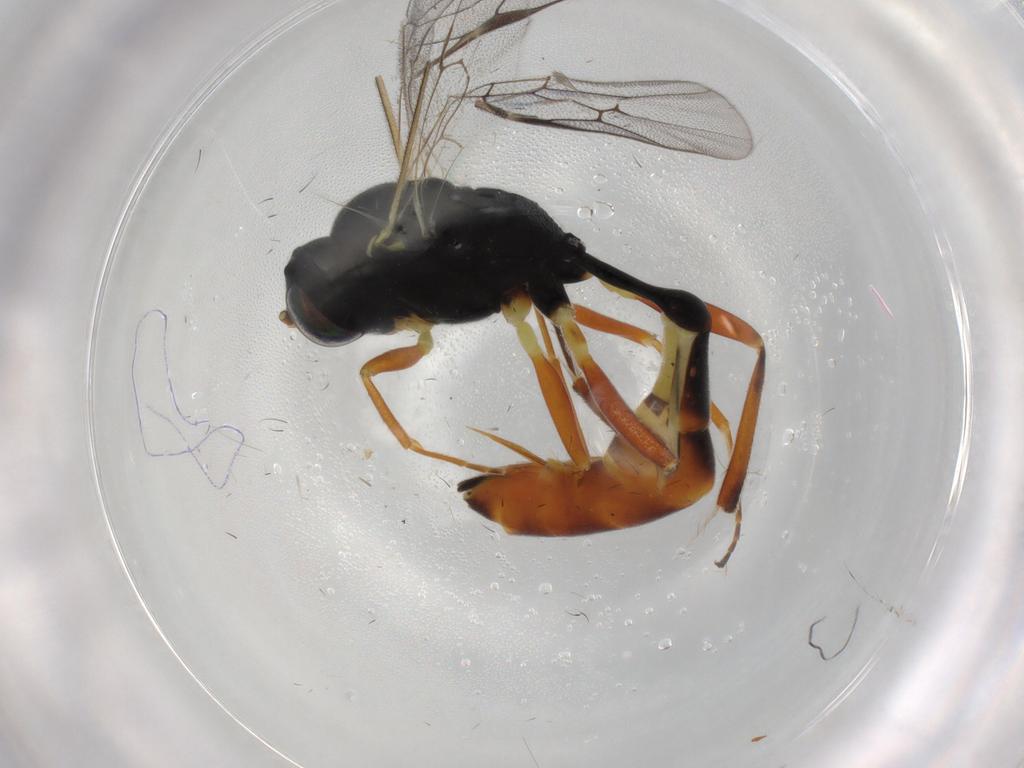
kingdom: Animalia
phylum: Arthropoda
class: Insecta
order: Hymenoptera
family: Ichneumonidae
